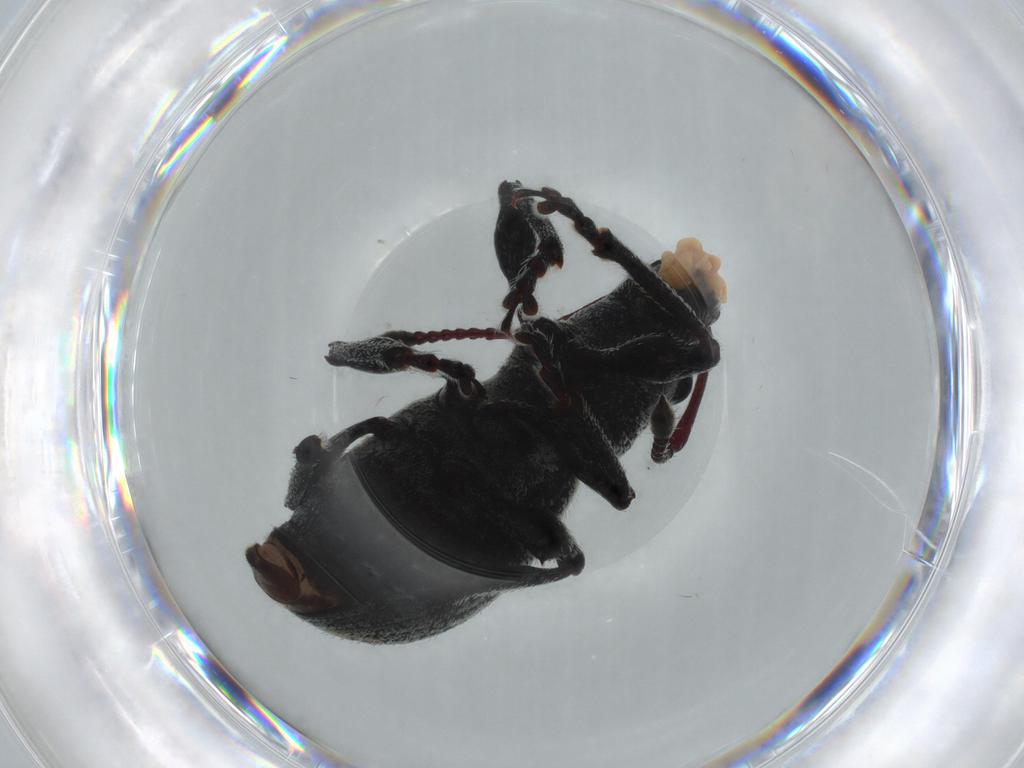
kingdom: Animalia
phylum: Arthropoda
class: Insecta
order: Coleoptera
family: Curculionidae
